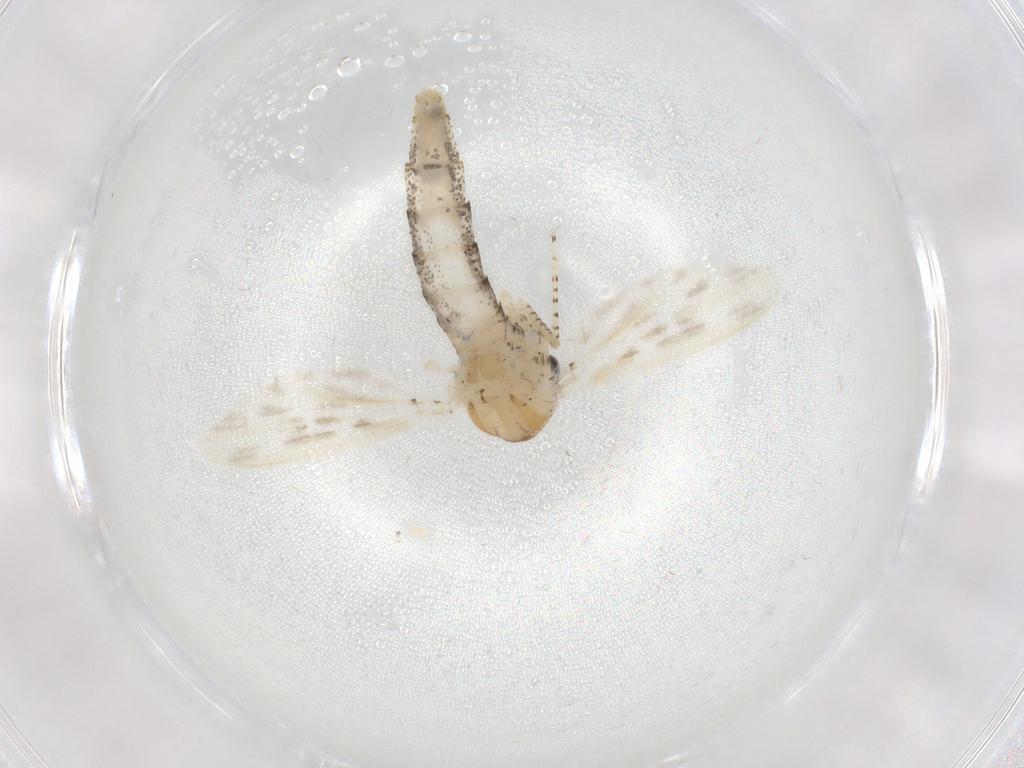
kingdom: Animalia
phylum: Arthropoda
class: Insecta
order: Diptera
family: Chaoboridae
